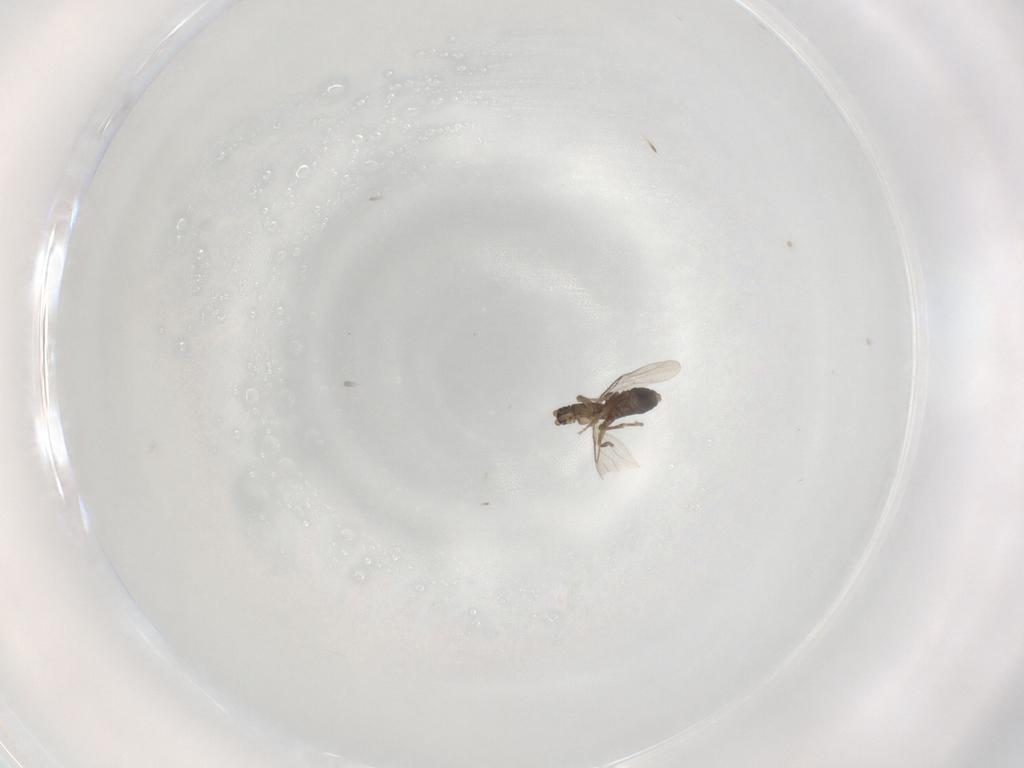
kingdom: Animalia
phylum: Arthropoda
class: Insecta
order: Diptera
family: Phoridae
